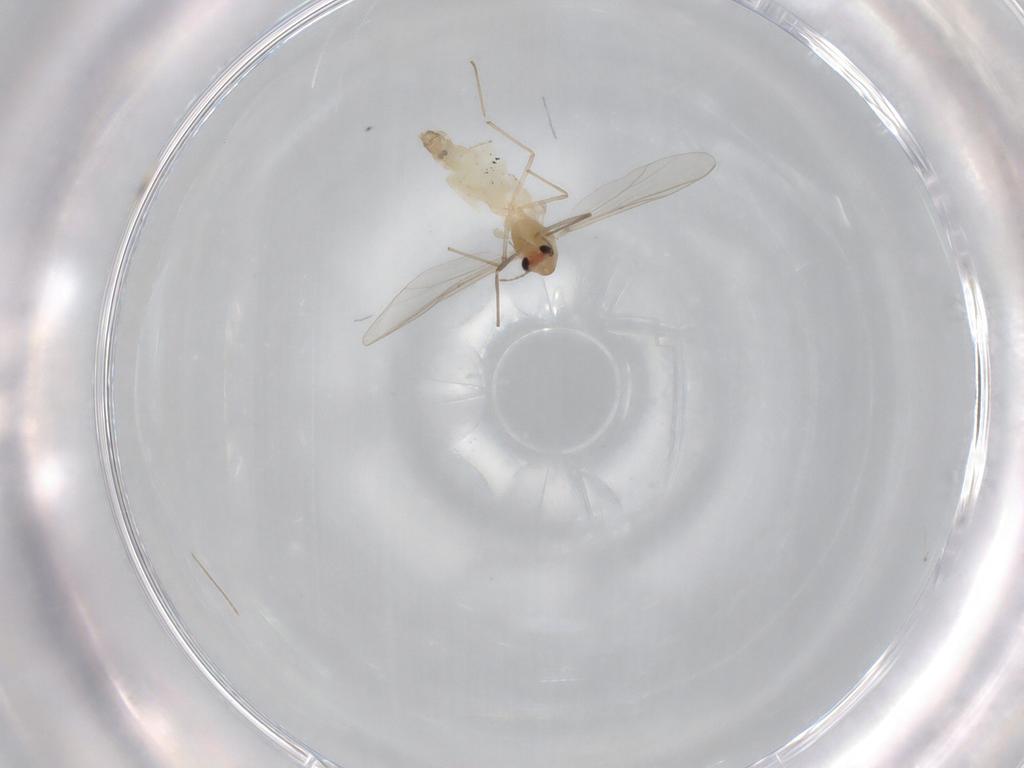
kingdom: Animalia
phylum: Arthropoda
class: Insecta
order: Diptera
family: Chironomidae
